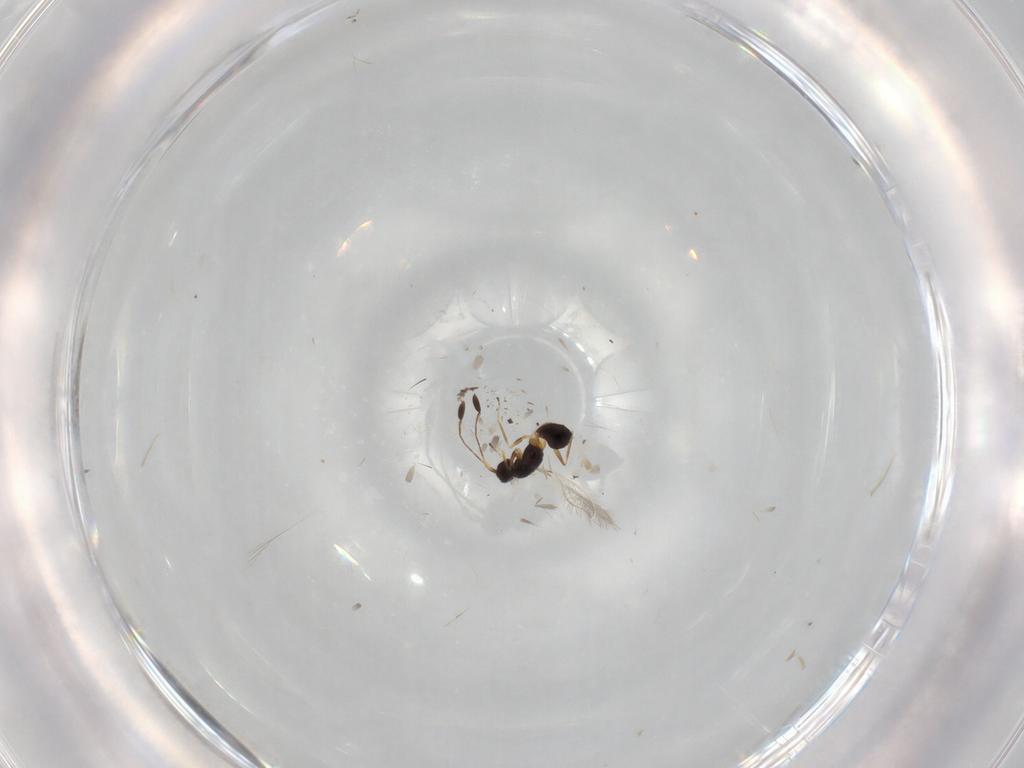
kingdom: Animalia
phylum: Arthropoda
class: Insecta
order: Hymenoptera
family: Mymaridae
